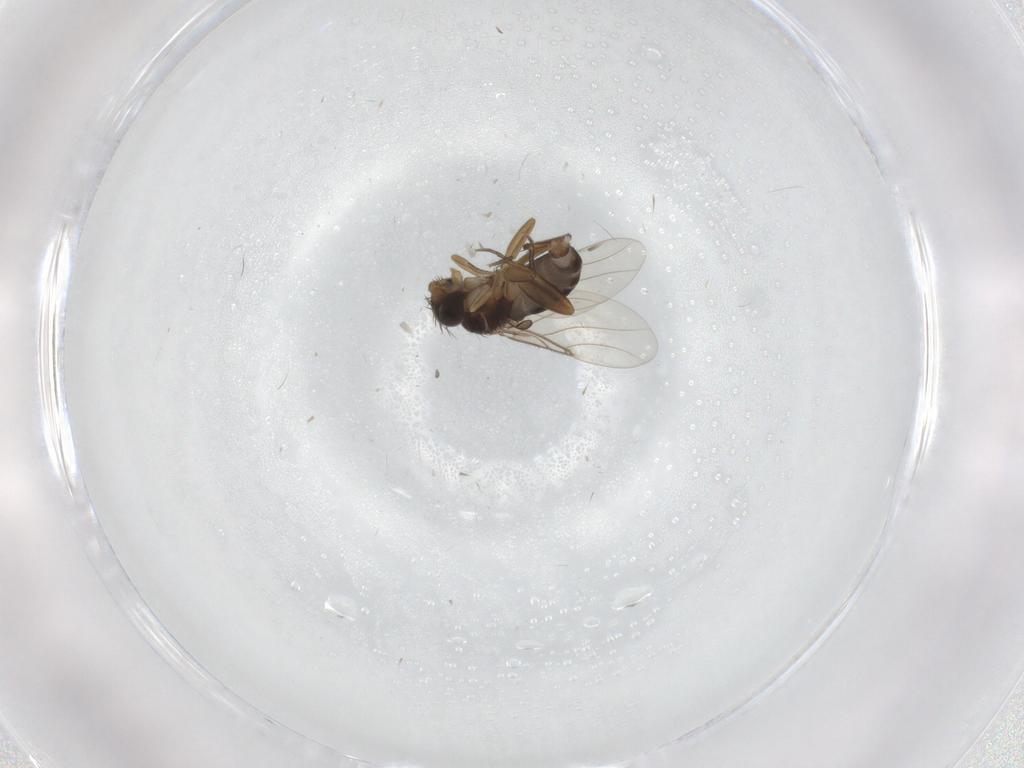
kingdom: Animalia
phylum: Arthropoda
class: Insecta
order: Diptera
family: Phoridae
